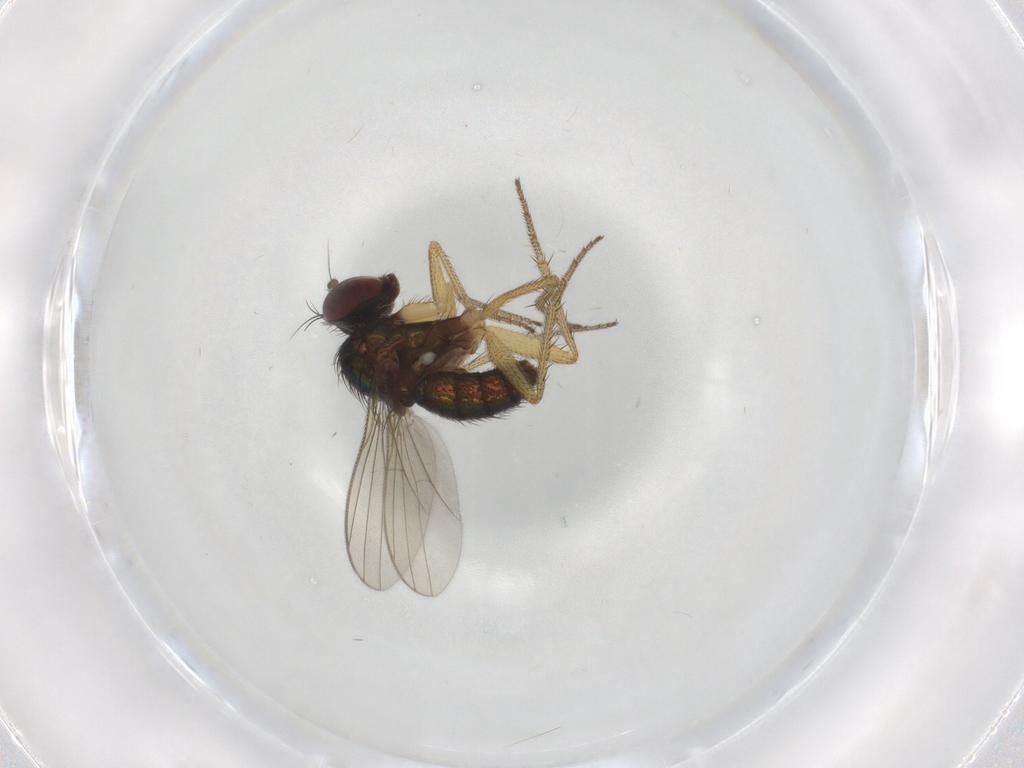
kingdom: Animalia
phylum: Arthropoda
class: Insecta
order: Diptera
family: Dolichopodidae
